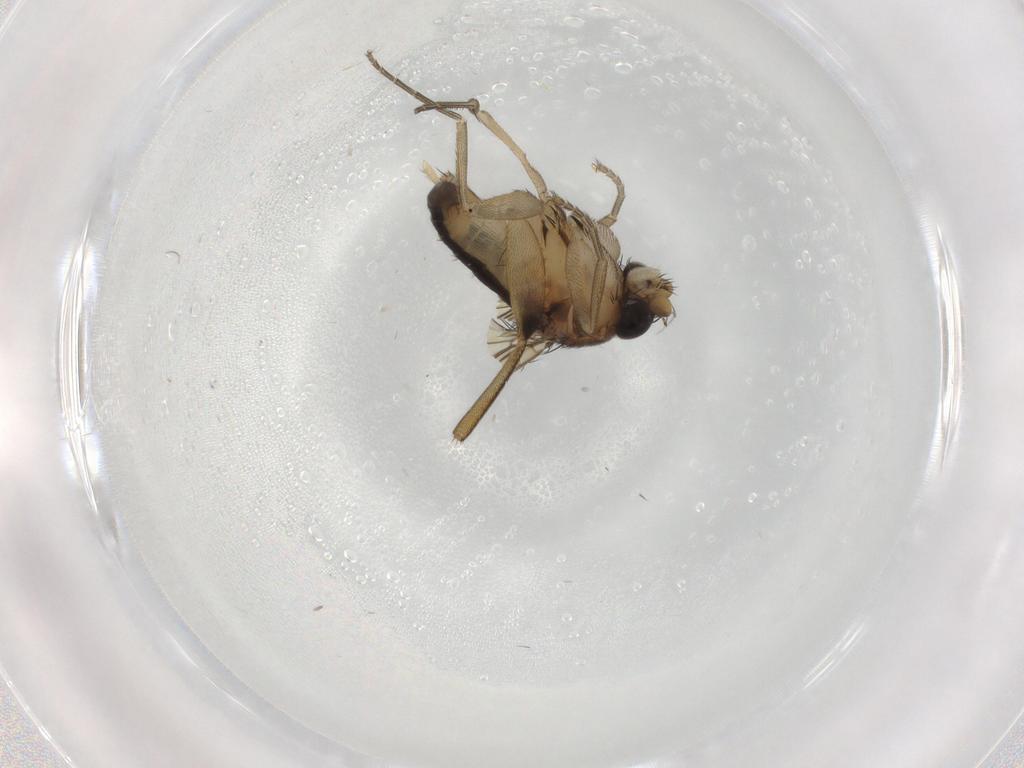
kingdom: Animalia
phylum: Arthropoda
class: Insecta
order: Diptera
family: Phoridae
